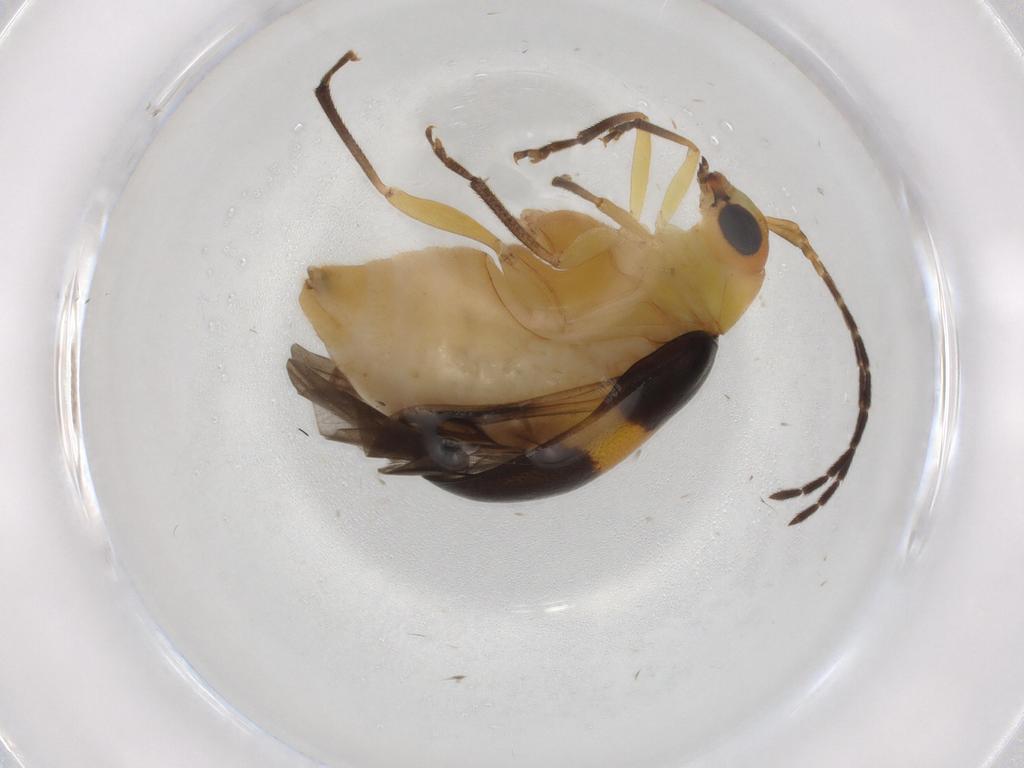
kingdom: Animalia
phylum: Arthropoda
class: Insecta
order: Coleoptera
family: Chrysomelidae
